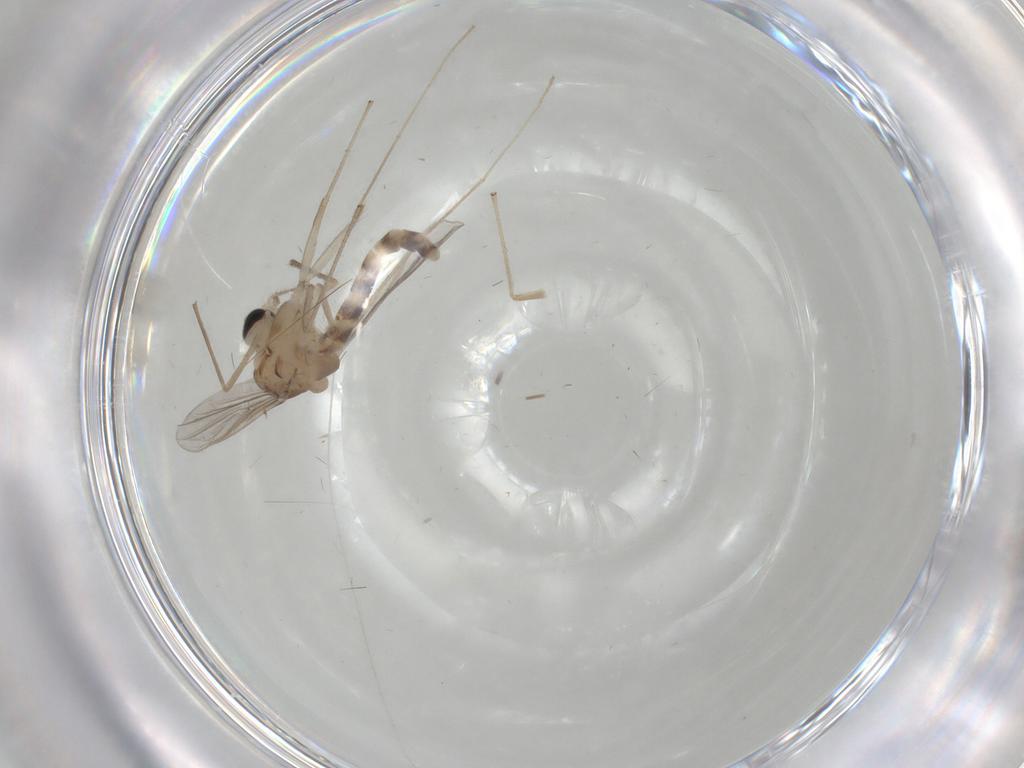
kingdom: Animalia
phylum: Arthropoda
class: Insecta
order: Diptera
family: Chironomidae
